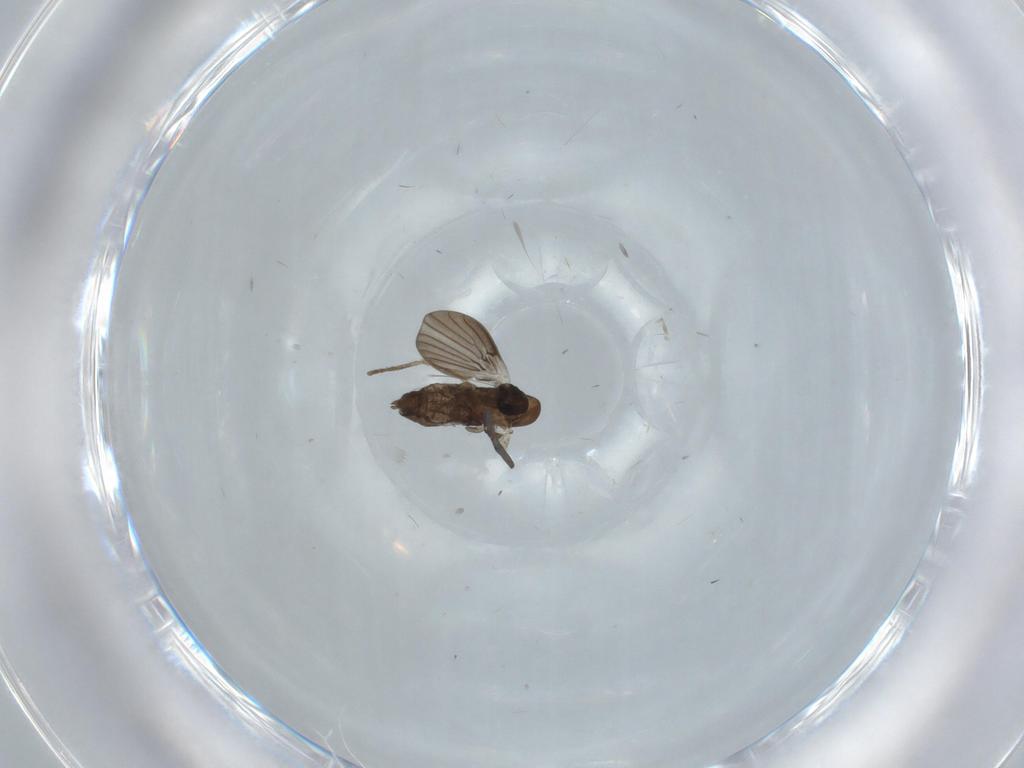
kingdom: Animalia
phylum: Arthropoda
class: Insecta
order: Diptera
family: Phoridae
